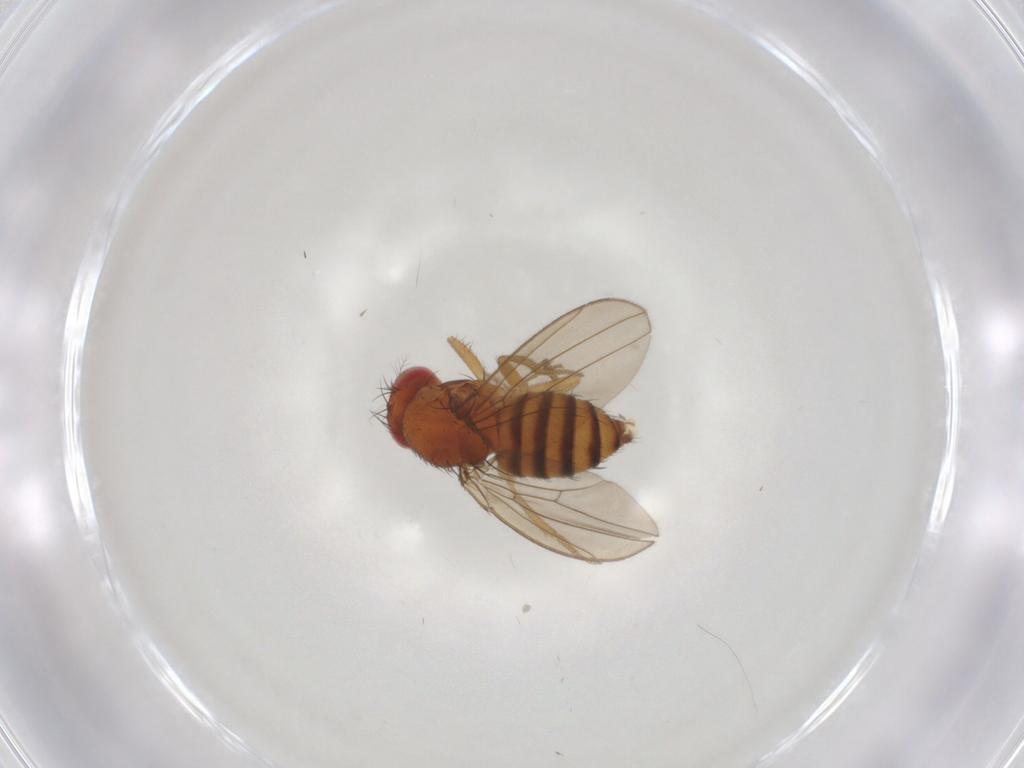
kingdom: Animalia
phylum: Arthropoda
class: Insecta
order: Diptera
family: Drosophilidae
